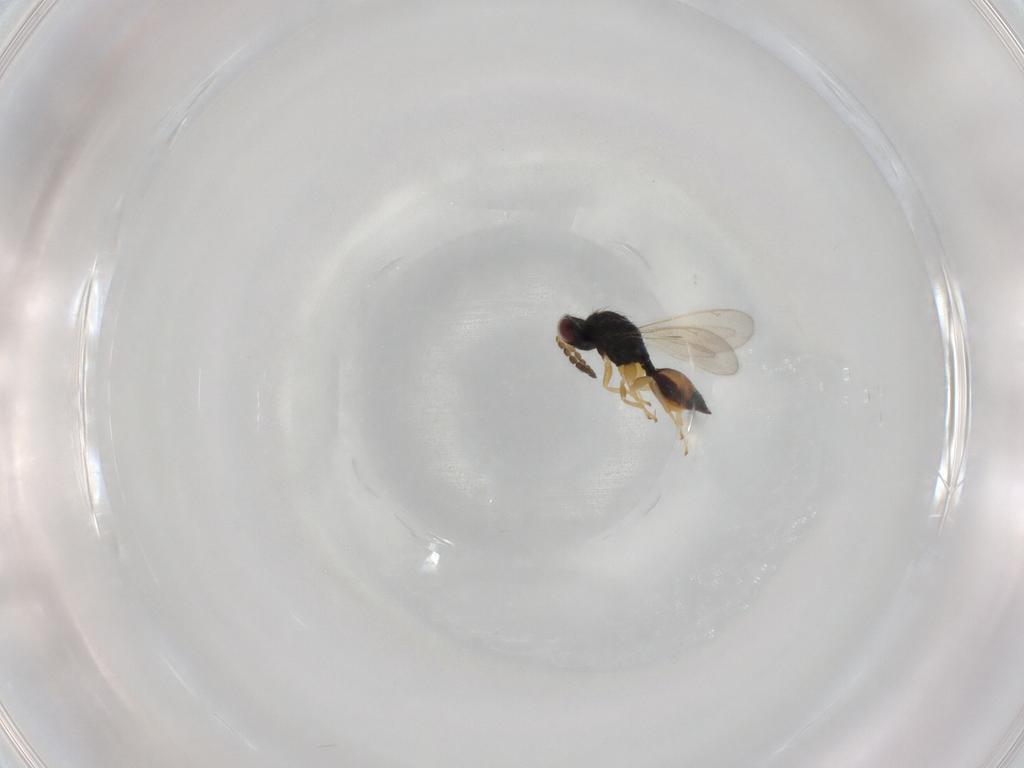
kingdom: Animalia
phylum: Arthropoda
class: Insecta
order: Hymenoptera
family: Eulophidae
